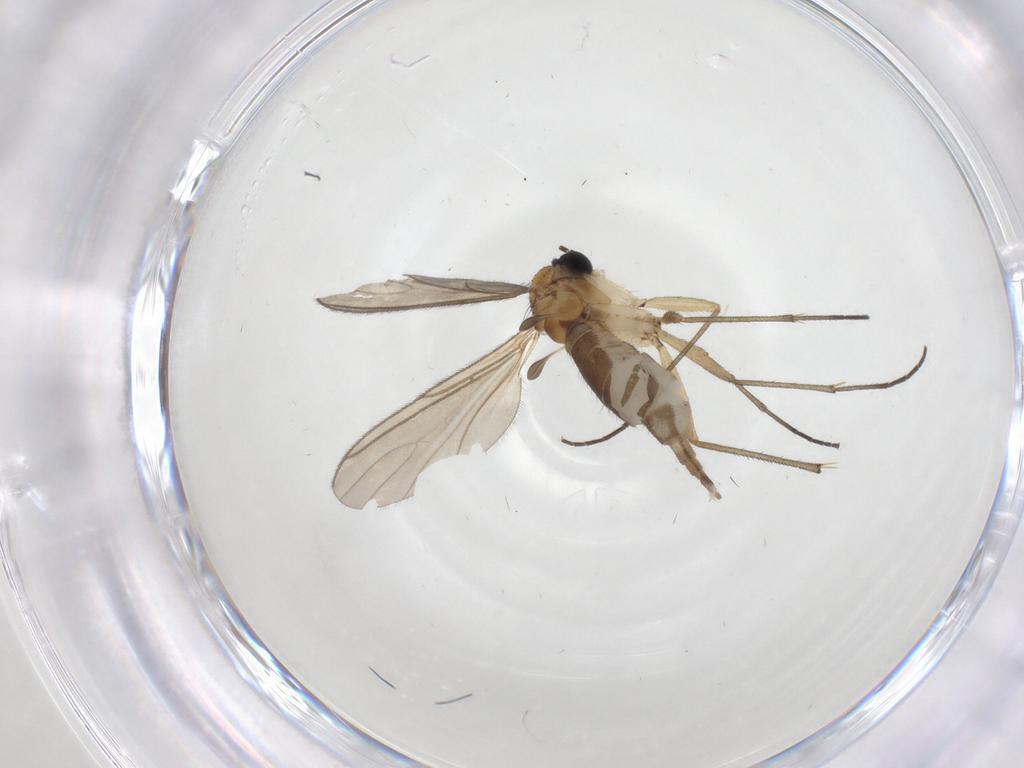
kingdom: Animalia
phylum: Arthropoda
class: Insecta
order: Diptera
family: Sciaridae
